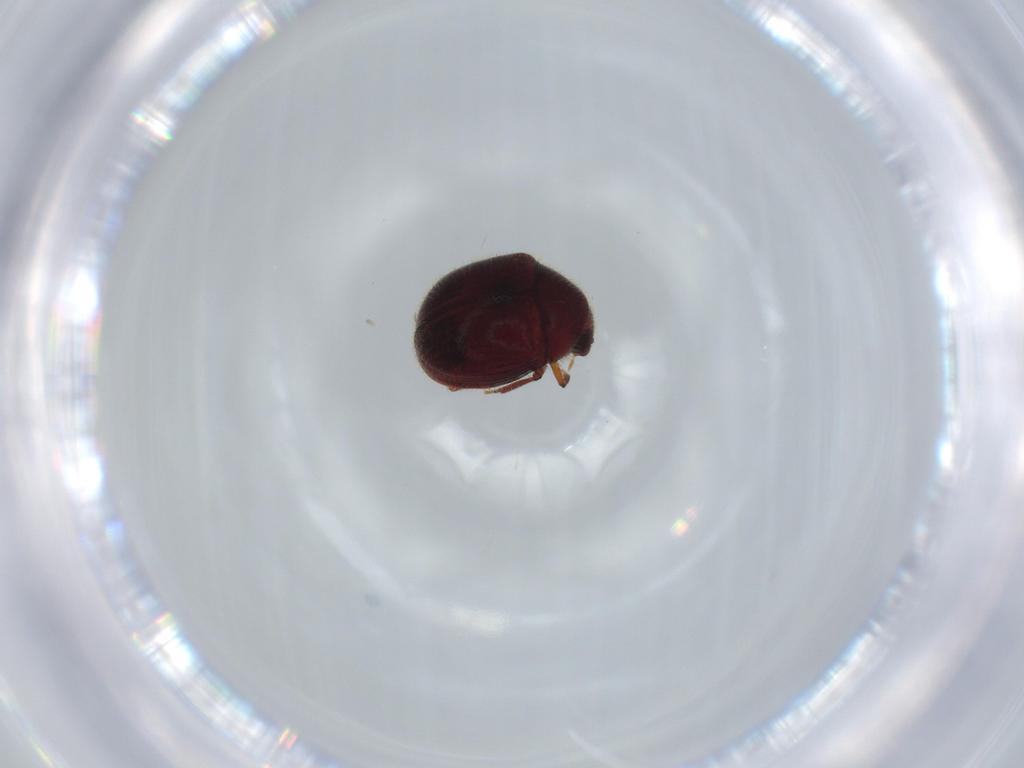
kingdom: Animalia
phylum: Arthropoda
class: Insecta
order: Coleoptera
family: Ptinidae
